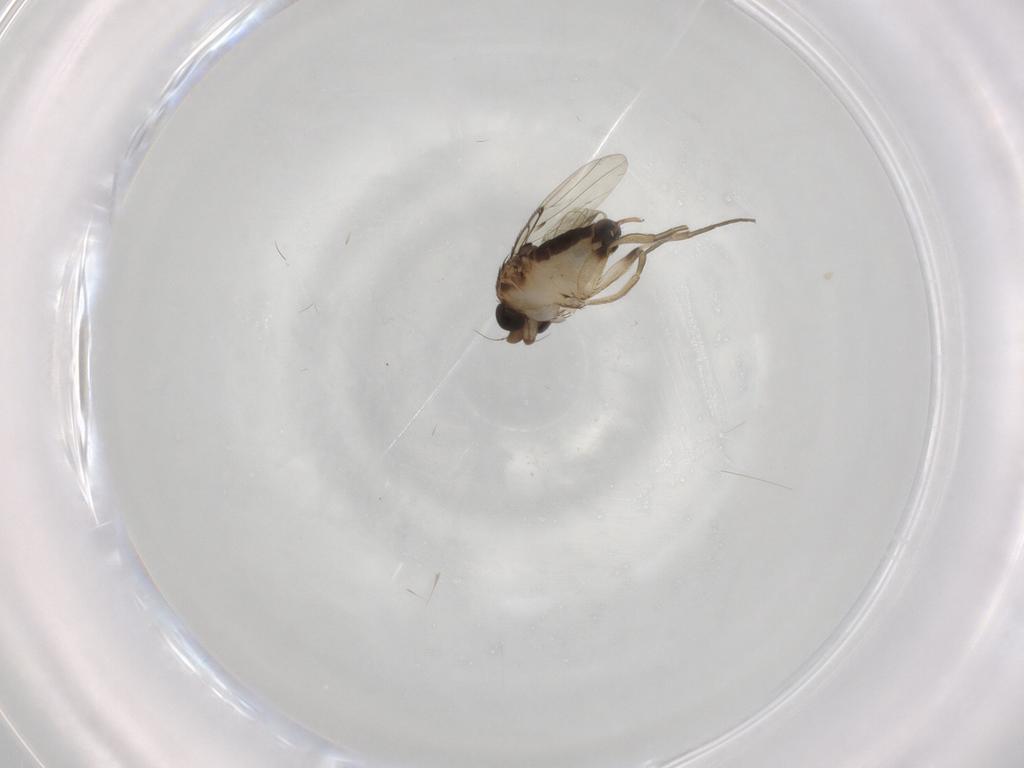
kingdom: Animalia
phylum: Arthropoda
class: Insecta
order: Diptera
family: Phoridae
